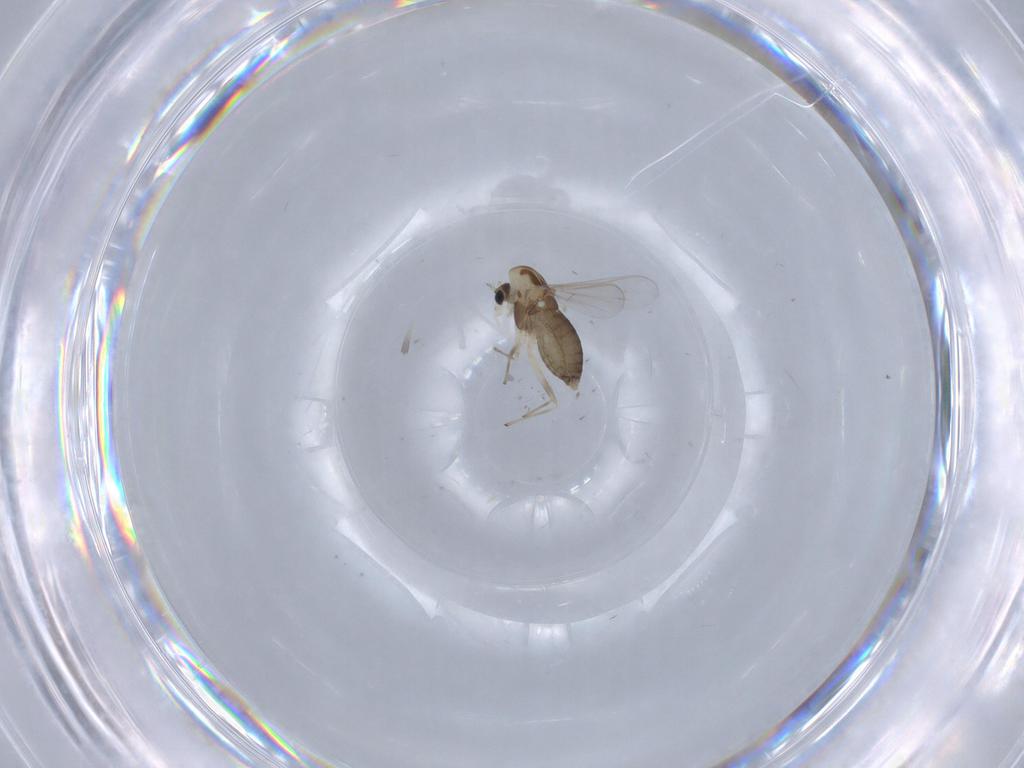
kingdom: Animalia
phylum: Arthropoda
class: Insecta
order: Diptera
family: Chironomidae
